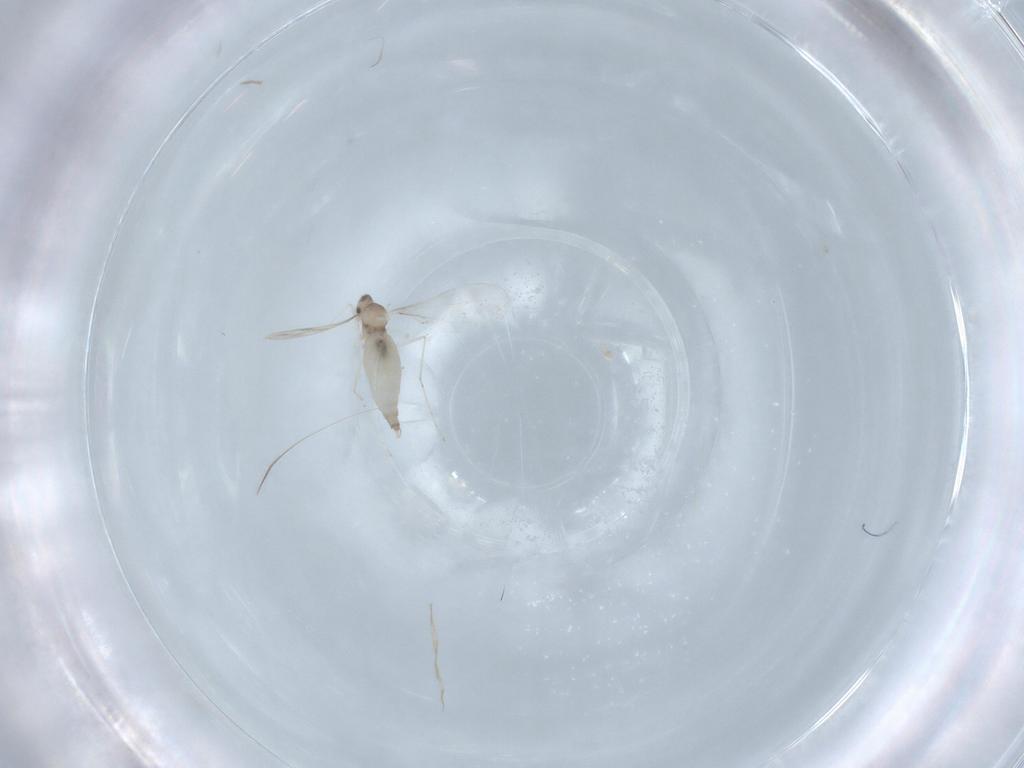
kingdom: Animalia
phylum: Arthropoda
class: Insecta
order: Diptera
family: Cecidomyiidae
